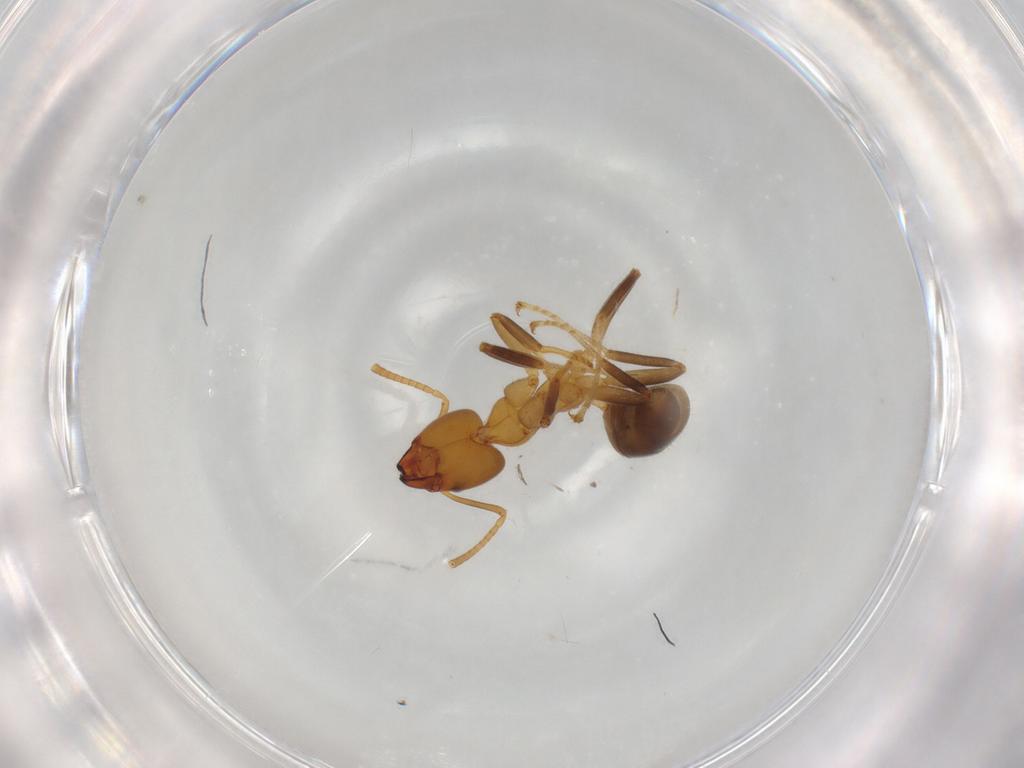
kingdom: Animalia
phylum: Arthropoda
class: Insecta
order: Hymenoptera
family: Formicidae
